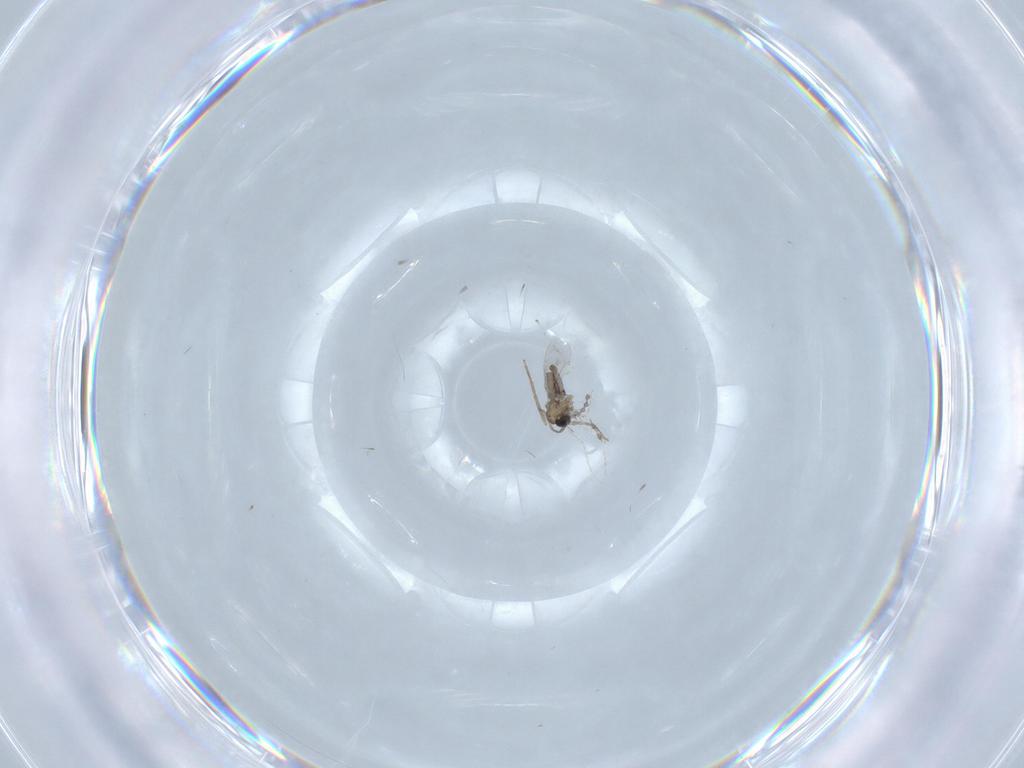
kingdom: Animalia
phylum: Arthropoda
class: Insecta
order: Diptera
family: Cecidomyiidae
